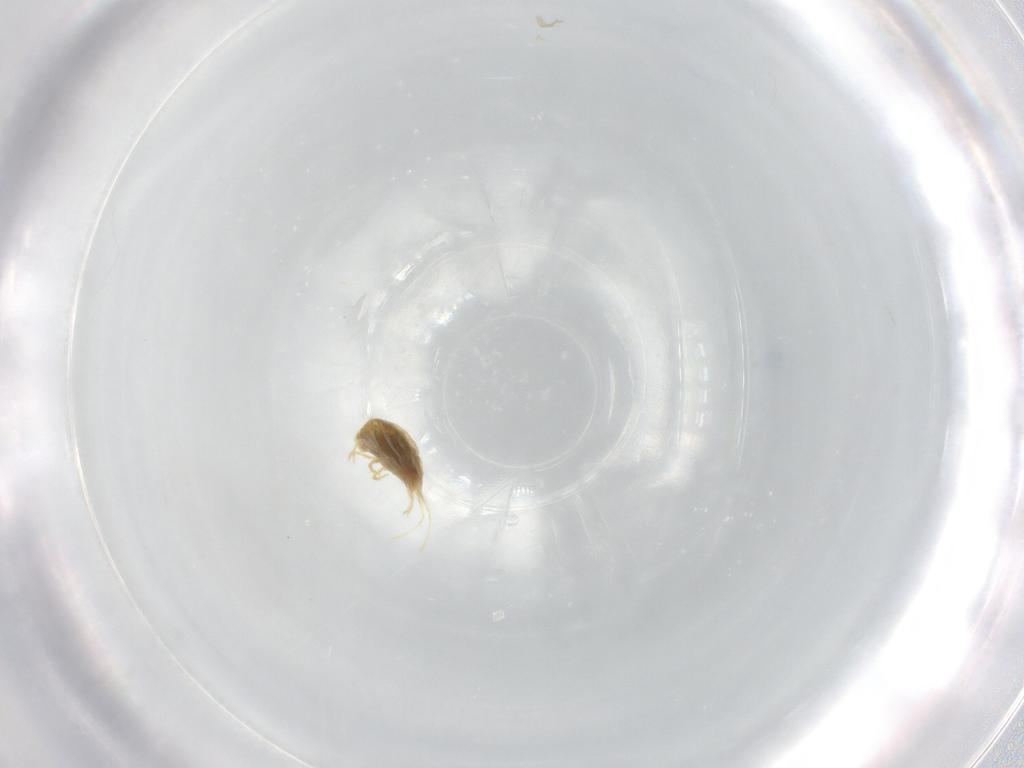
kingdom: Animalia
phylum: Arthropoda
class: Arachnida
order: Trombidiformes
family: Tetranychidae
